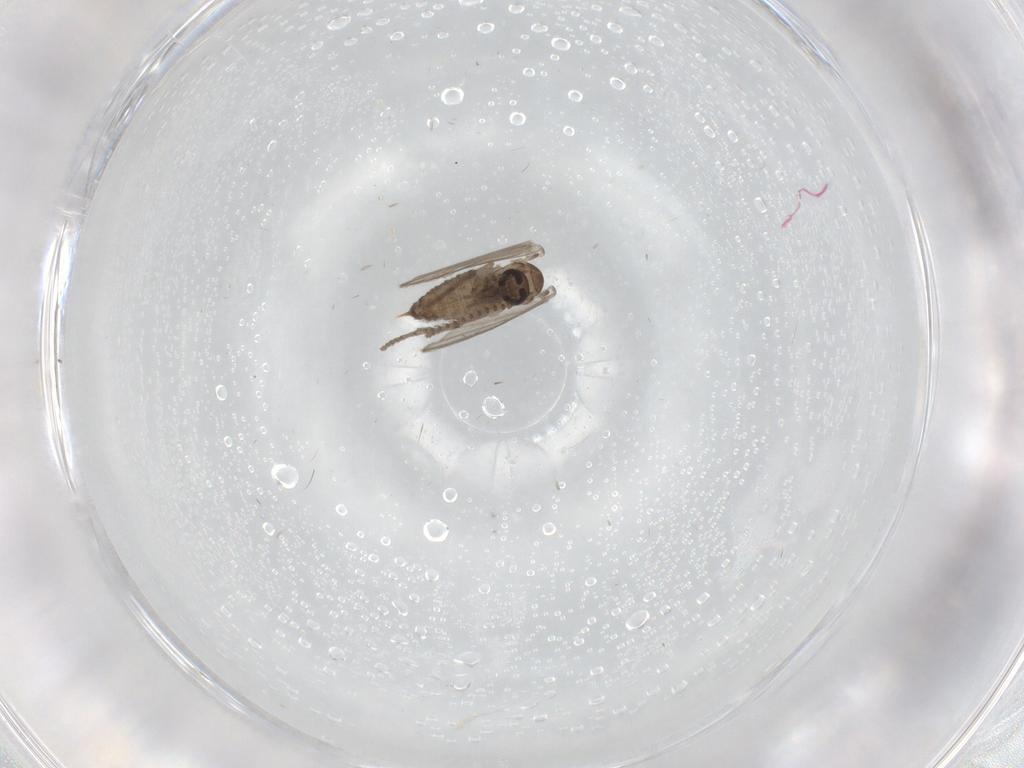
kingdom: Animalia
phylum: Arthropoda
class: Insecta
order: Diptera
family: Psychodidae
